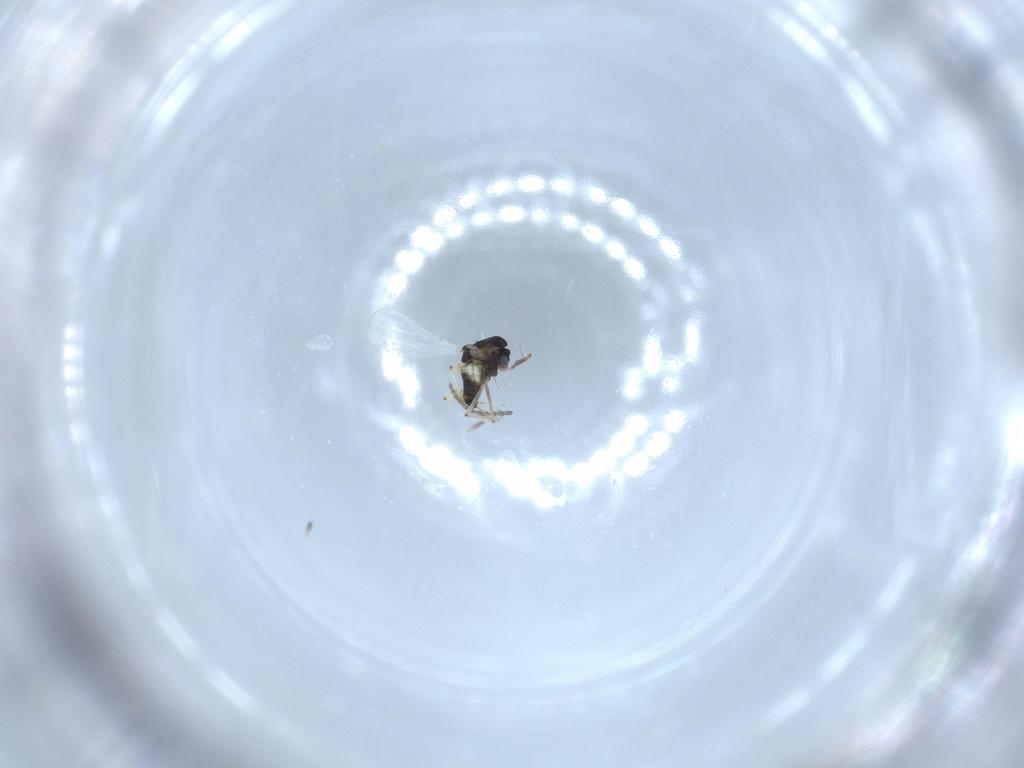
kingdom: Animalia
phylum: Arthropoda
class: Insecta
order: Diptera
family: Chironomidae
